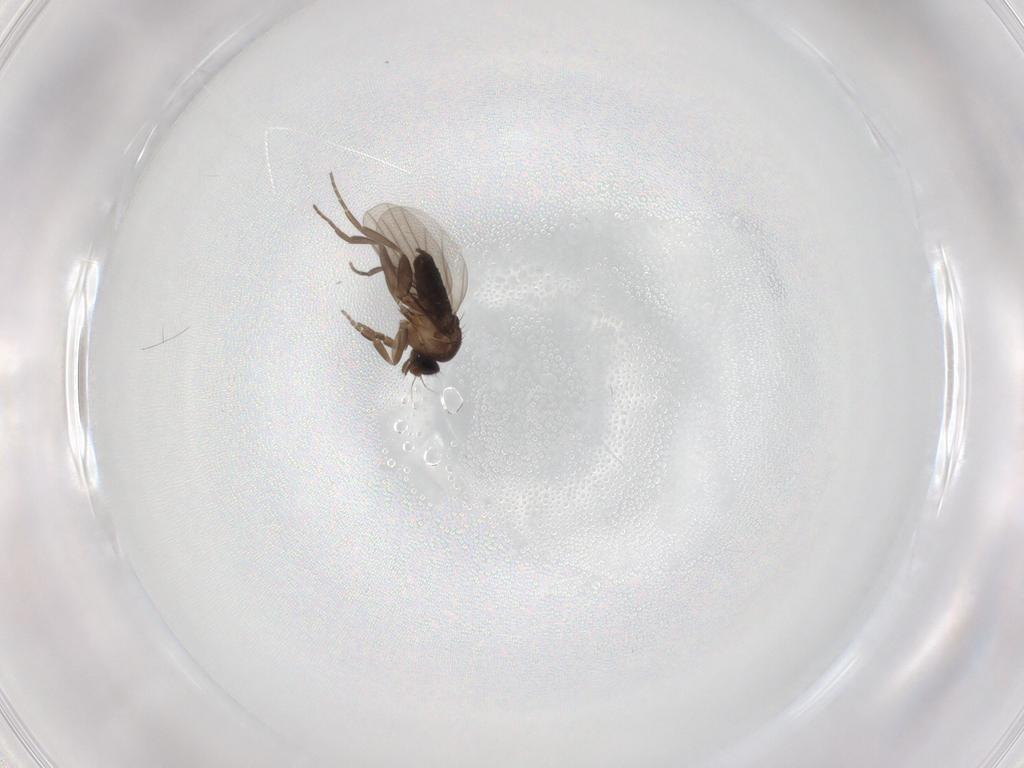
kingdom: Animalia
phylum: Arthropoda
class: Insecta
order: Diptera
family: Phoridae
